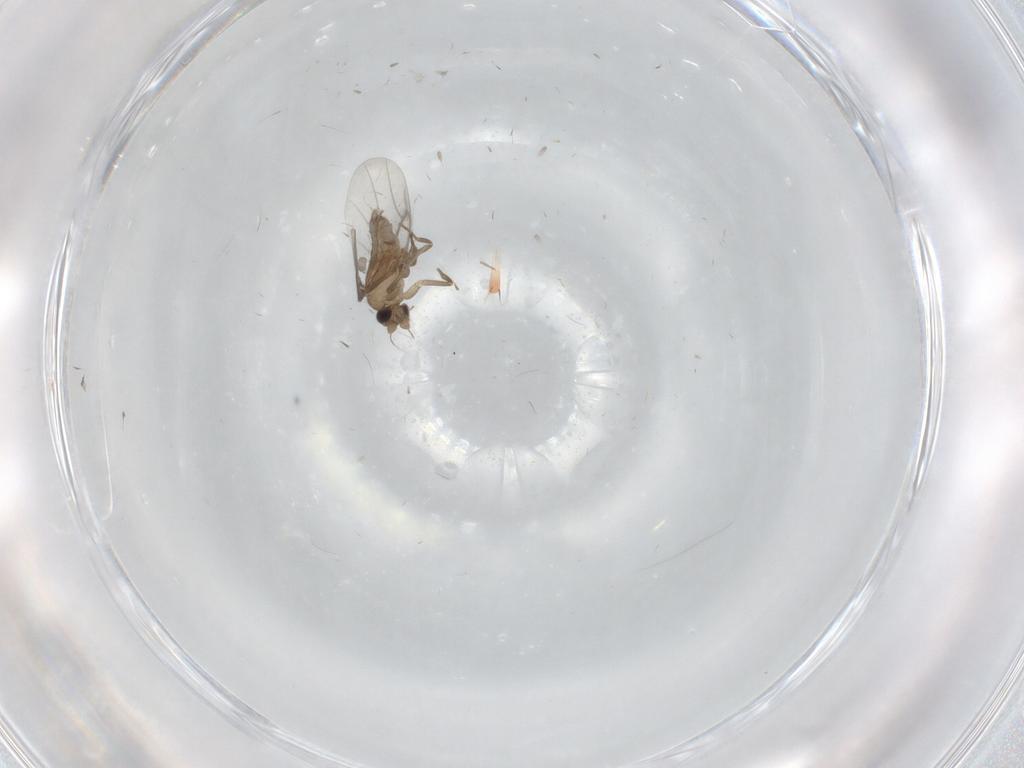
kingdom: Animalia
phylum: Arthropoda
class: Insecta
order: Diptera
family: Cecidomyiidae
